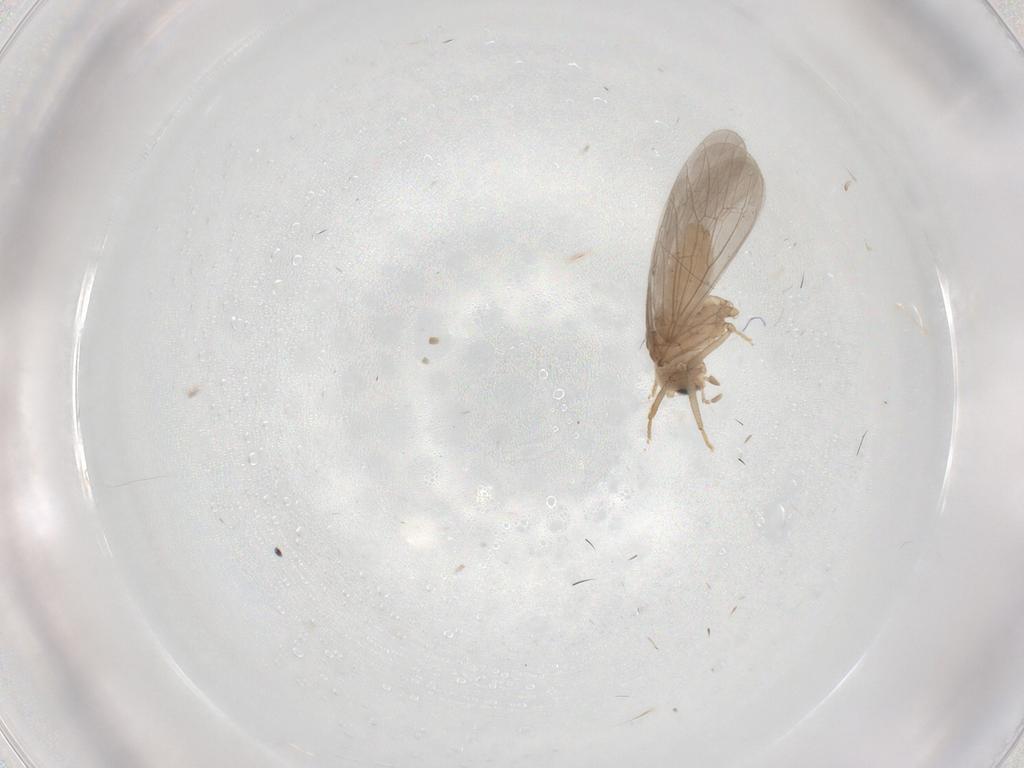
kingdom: Animalia
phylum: Arthropoda
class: Insecta
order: Neuroptera
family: Coniopterygidae
